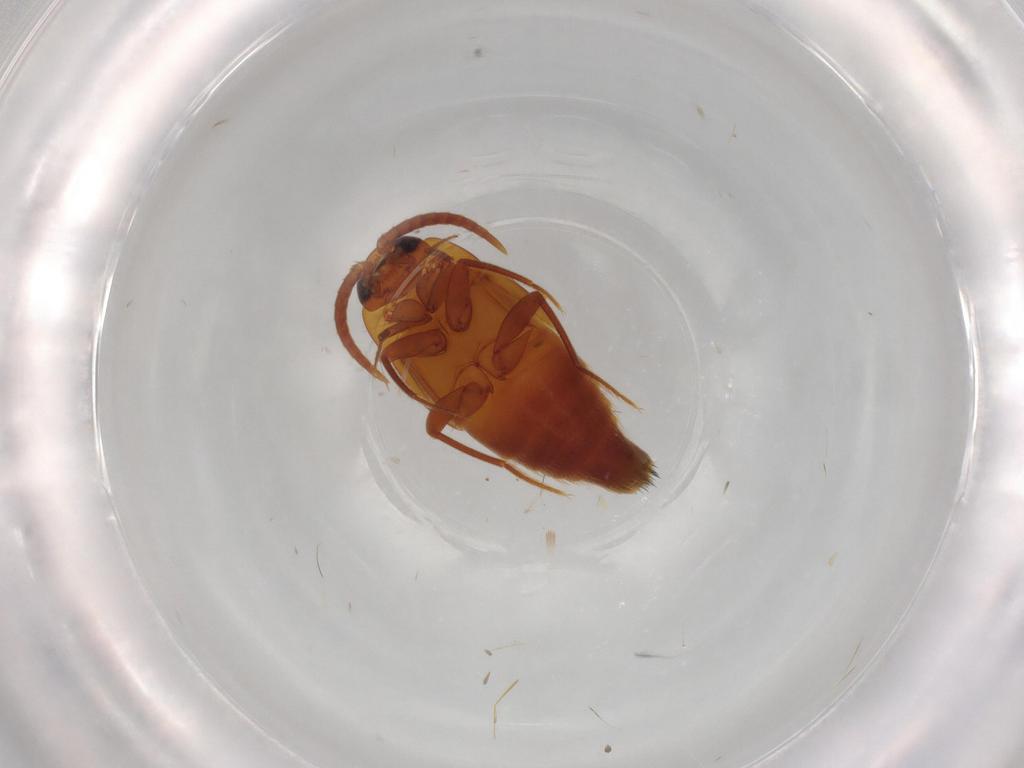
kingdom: Animalia
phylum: Arthropoda
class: Insecta
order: Coleoptera
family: Staphylinidae
